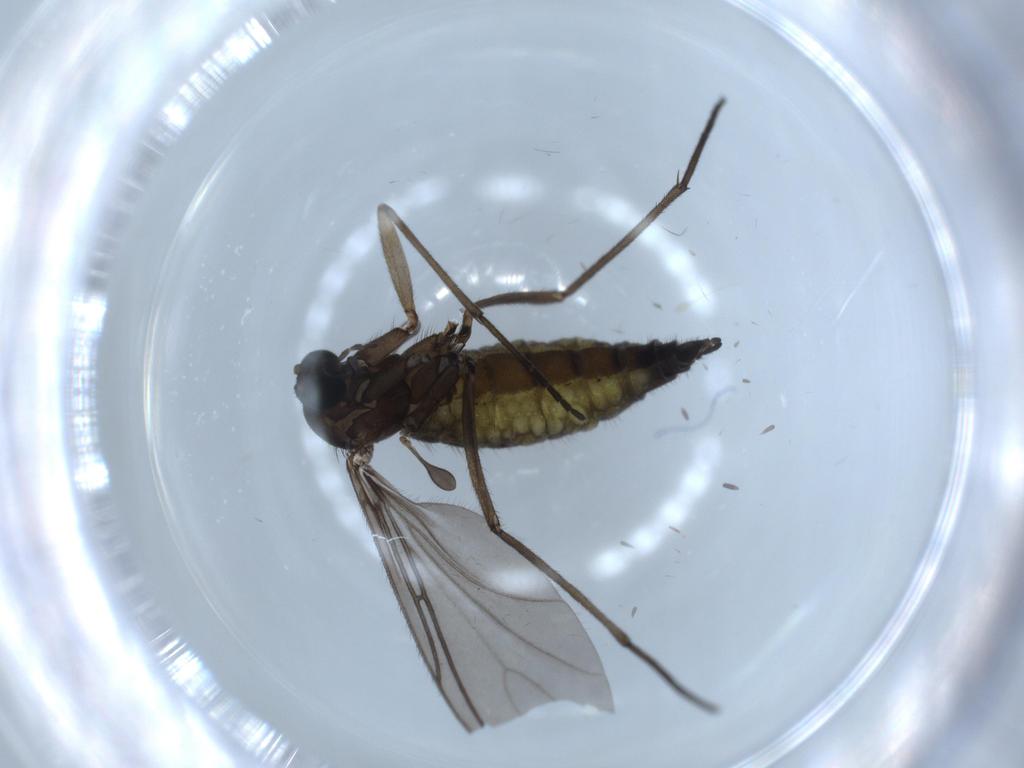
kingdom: Animalia
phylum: Arthropoda
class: Insecta
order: Diptera
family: Sciaridae
